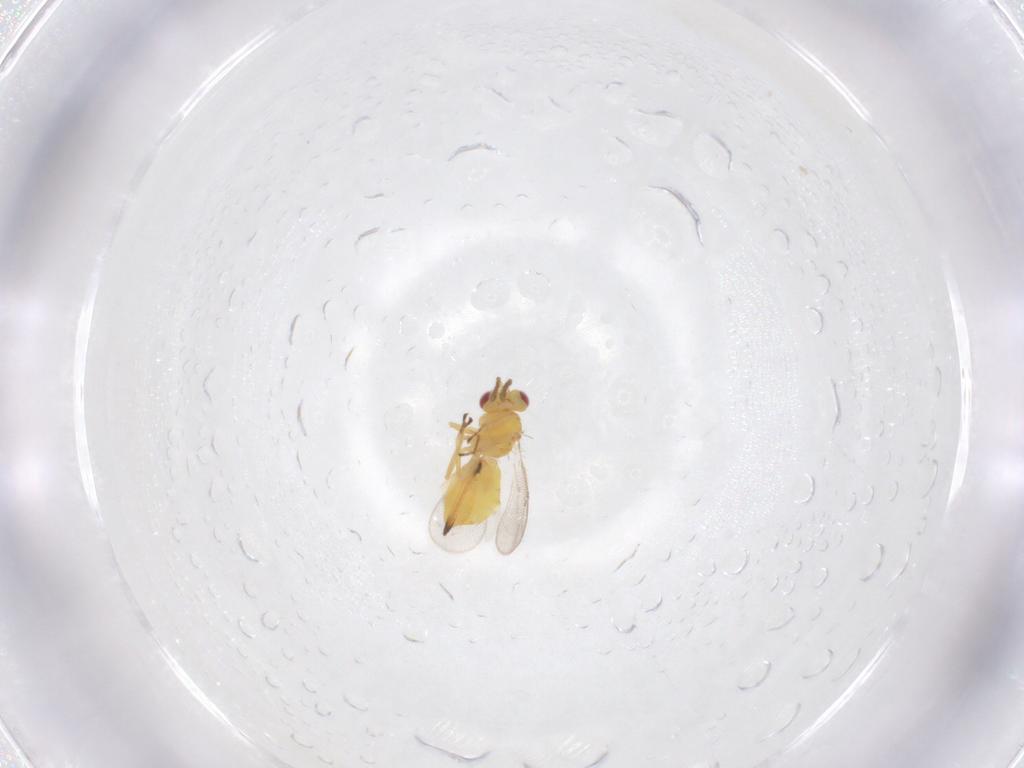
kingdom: Animalia
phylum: Arthropoda
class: Insecta
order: Hymenoptera
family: Eulophidae
